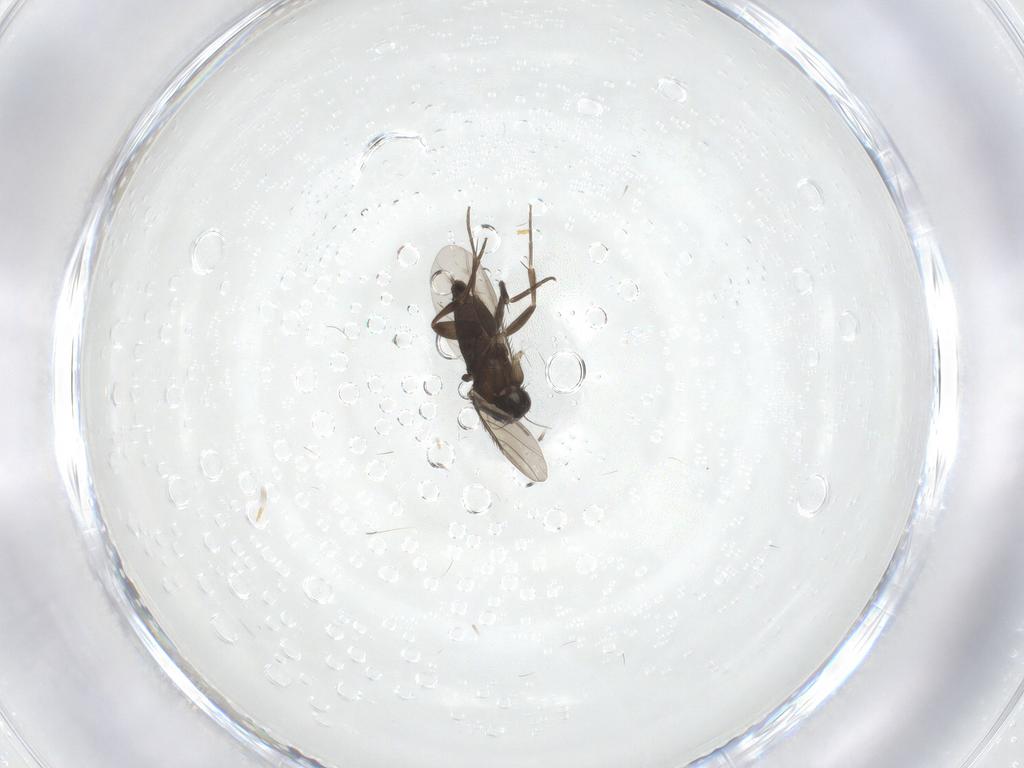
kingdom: Animalia
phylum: Arthropoda
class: Insecta
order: Diptera
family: Phoridae
